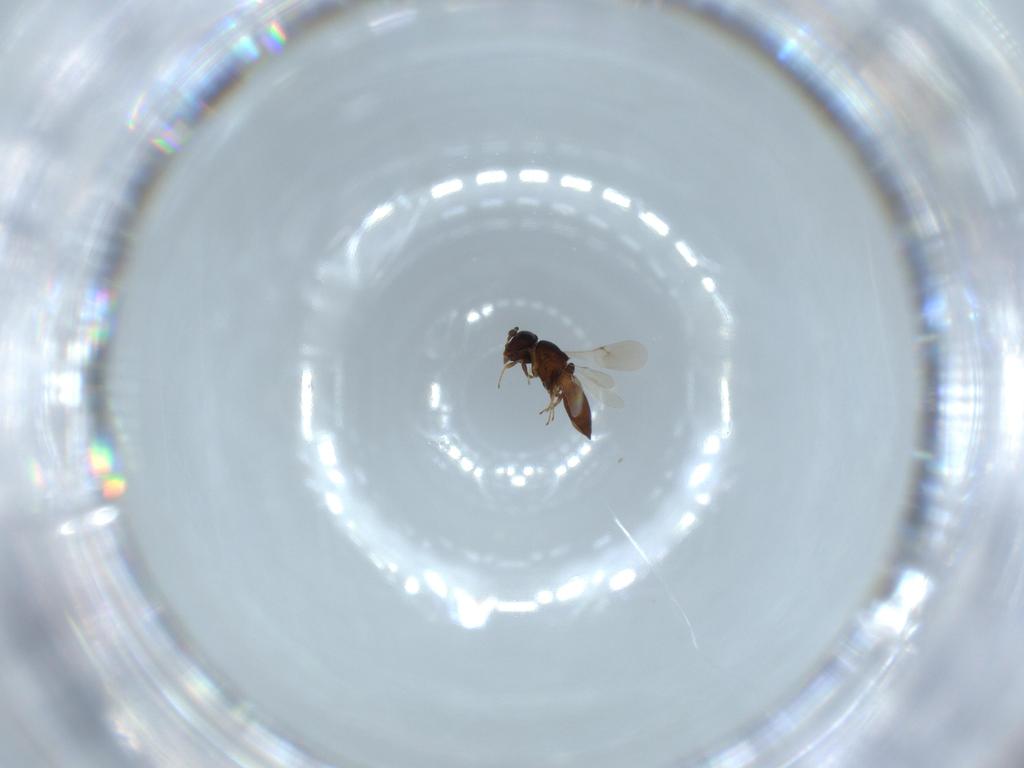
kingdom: Animalia
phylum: Arthropoda
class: Insecta
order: Hymenoptera
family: Scelionidae
